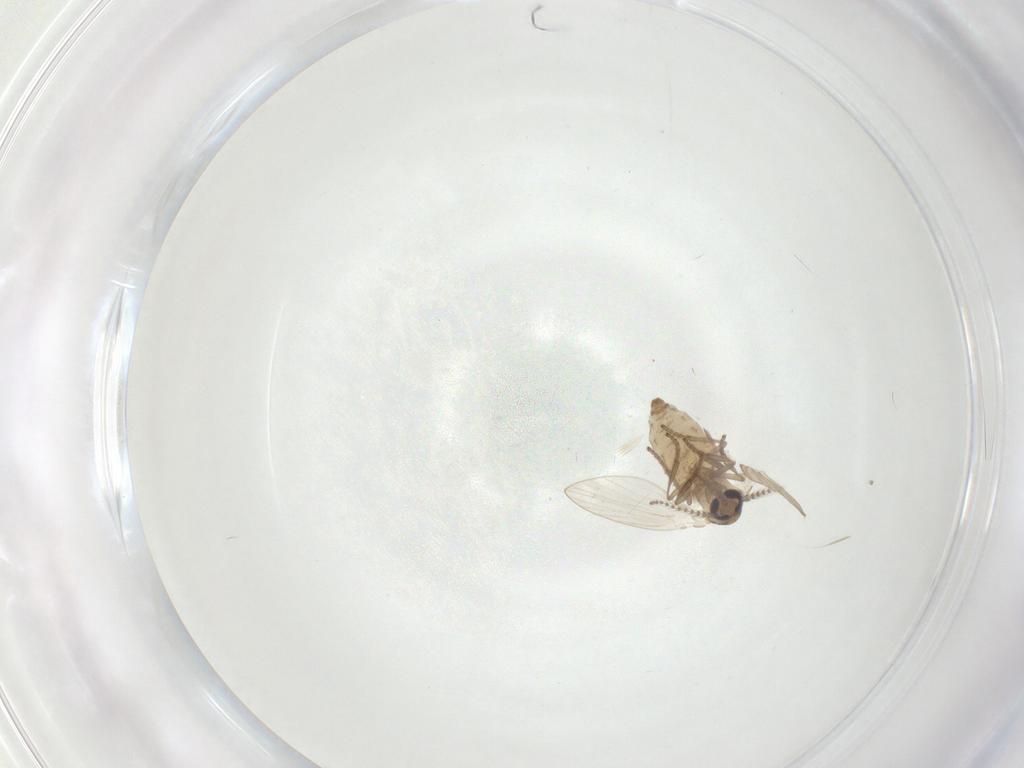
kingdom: Animalia
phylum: Arthropoda
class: Insecta
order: Diptera
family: Psychodidae
